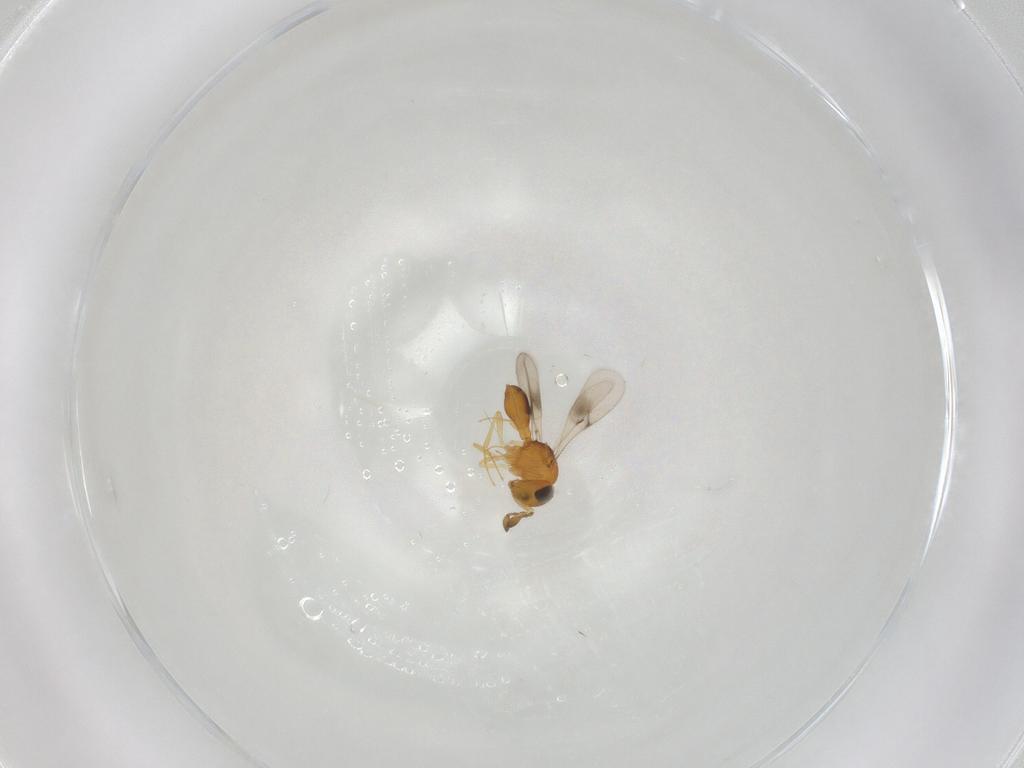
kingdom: Animalia
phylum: Arthropoda
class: Insecta
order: Hymenoptera
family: Scelionidae
